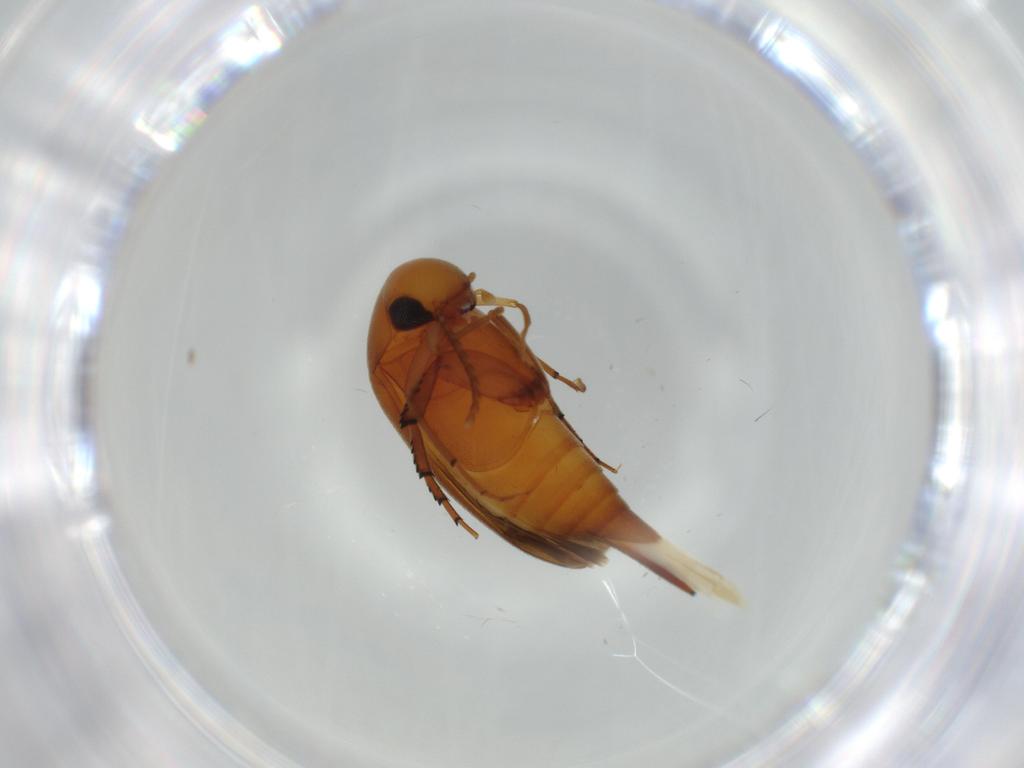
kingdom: Animalia
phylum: Arthropoda
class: Insecta
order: Coleoptera
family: Mordellidae
